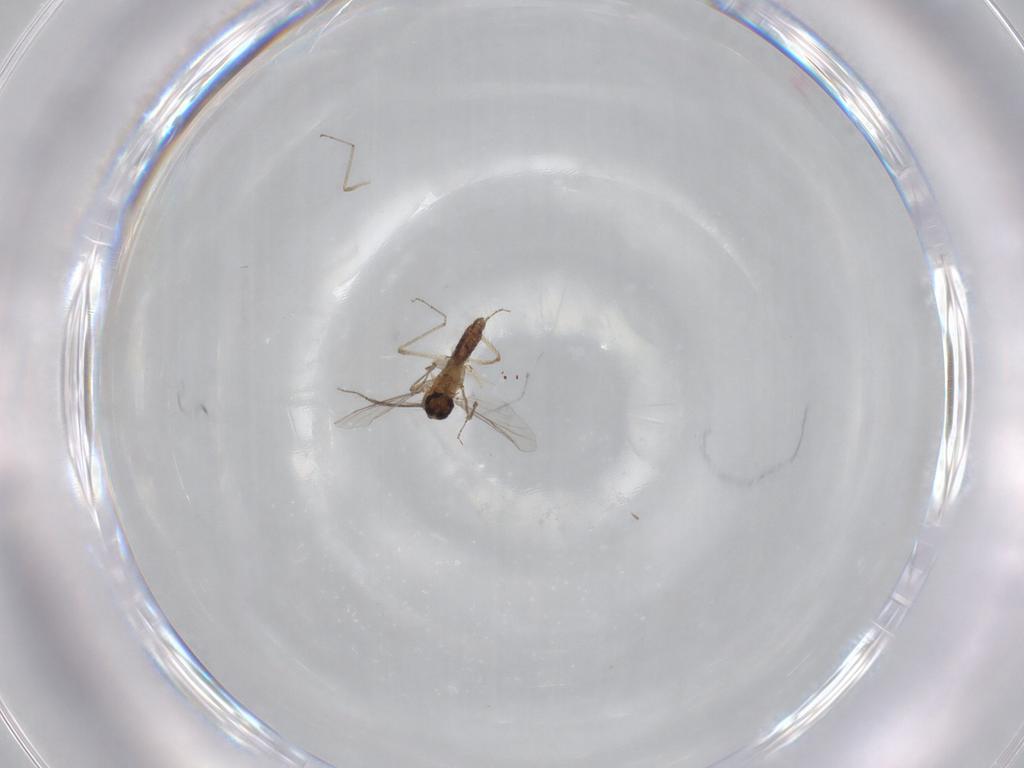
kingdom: Animalia
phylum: Arthropoda
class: Insecta
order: Diptera
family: Ceratopogonidae
